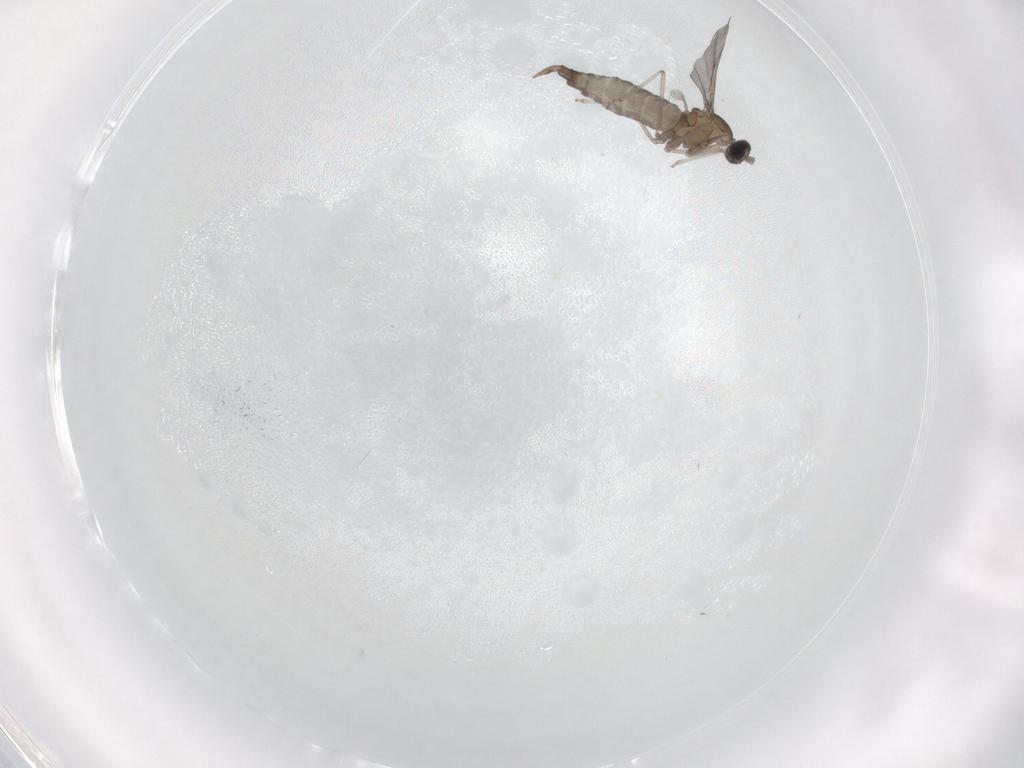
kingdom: Animalia
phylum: Arthropoda
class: Insecta
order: Diptera
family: Cecidomyiidae
